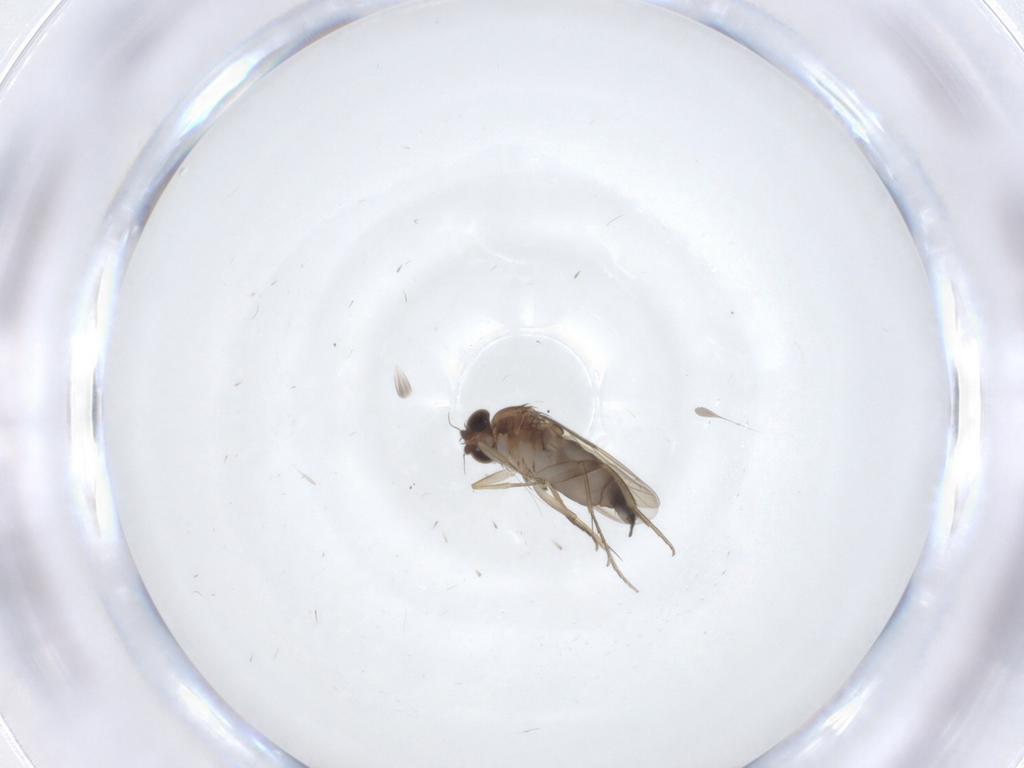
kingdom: Animalia
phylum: Arthropoda
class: Insecta
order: Diptera
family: Phoridae
